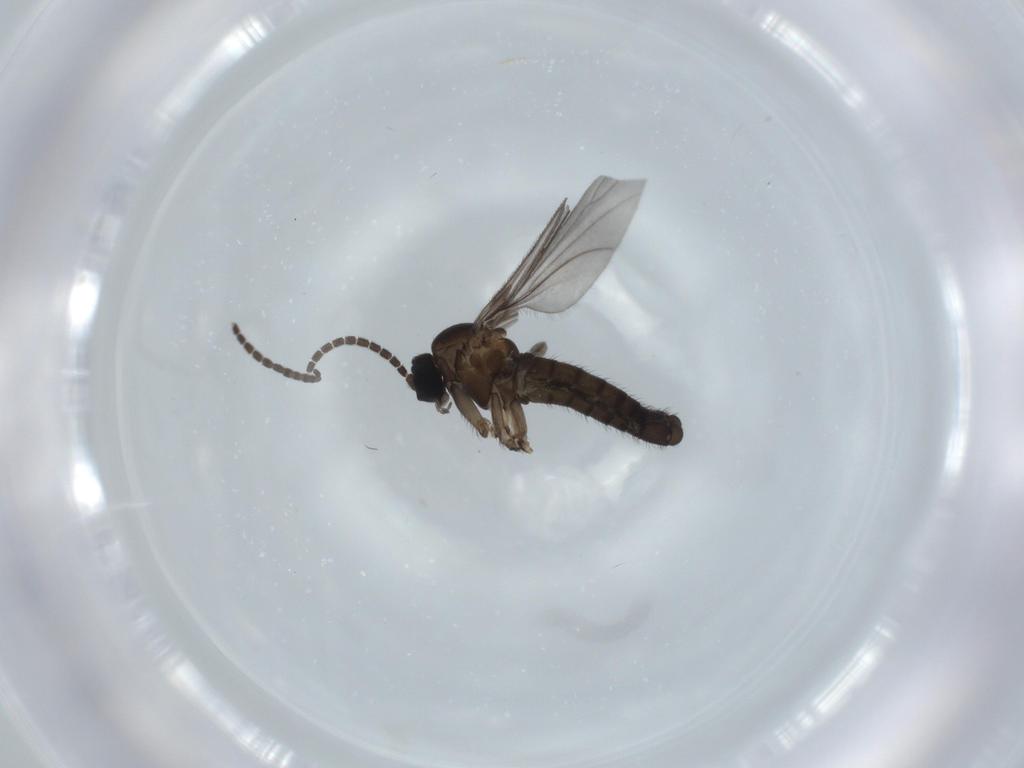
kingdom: Animalia
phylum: Arthropoda
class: Insecta
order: Diptera
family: Sciaridae
